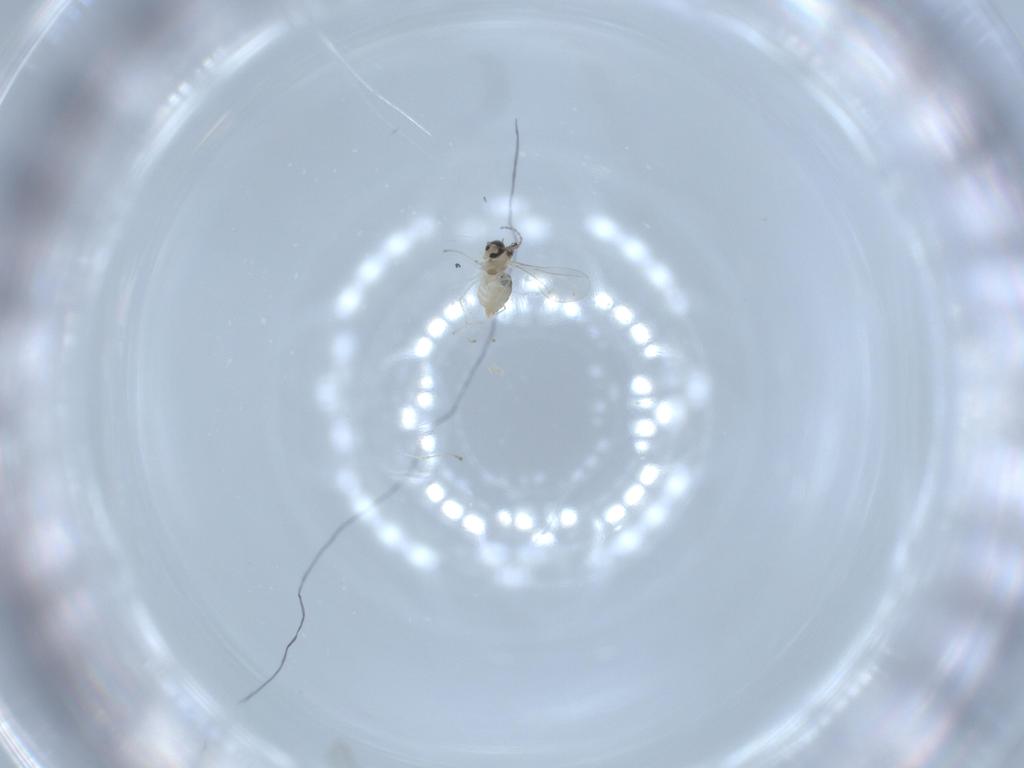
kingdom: Animalia
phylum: Arthropoda
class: Insecta
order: Diptera
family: Cecidomyiidae
